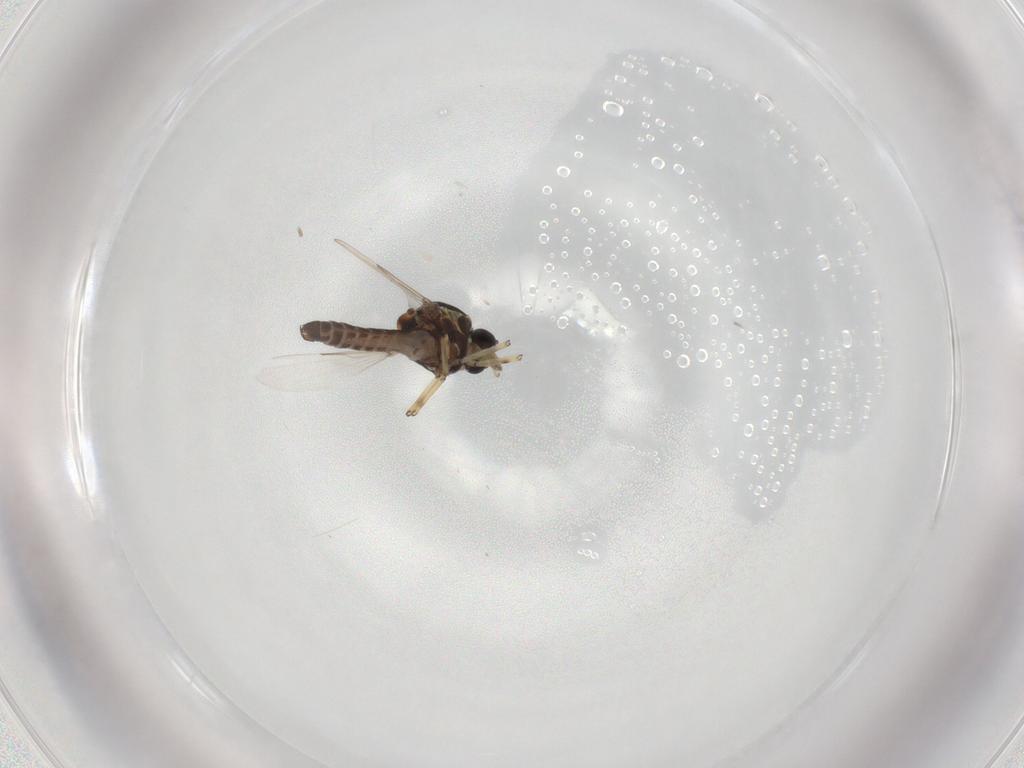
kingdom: Animalia
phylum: Arthropoda
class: Insecta
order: Diptera
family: Ceratopogonidae
